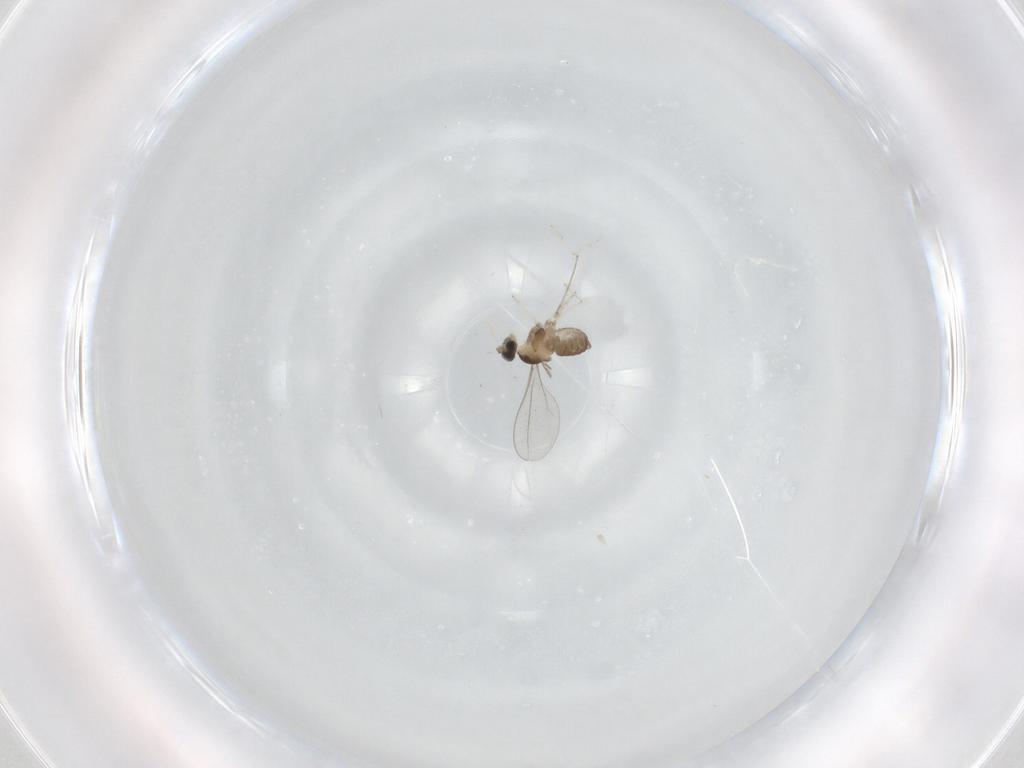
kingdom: Animalia
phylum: Arthropoda
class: Insecta
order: Diptera
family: Cecidomyiidae
